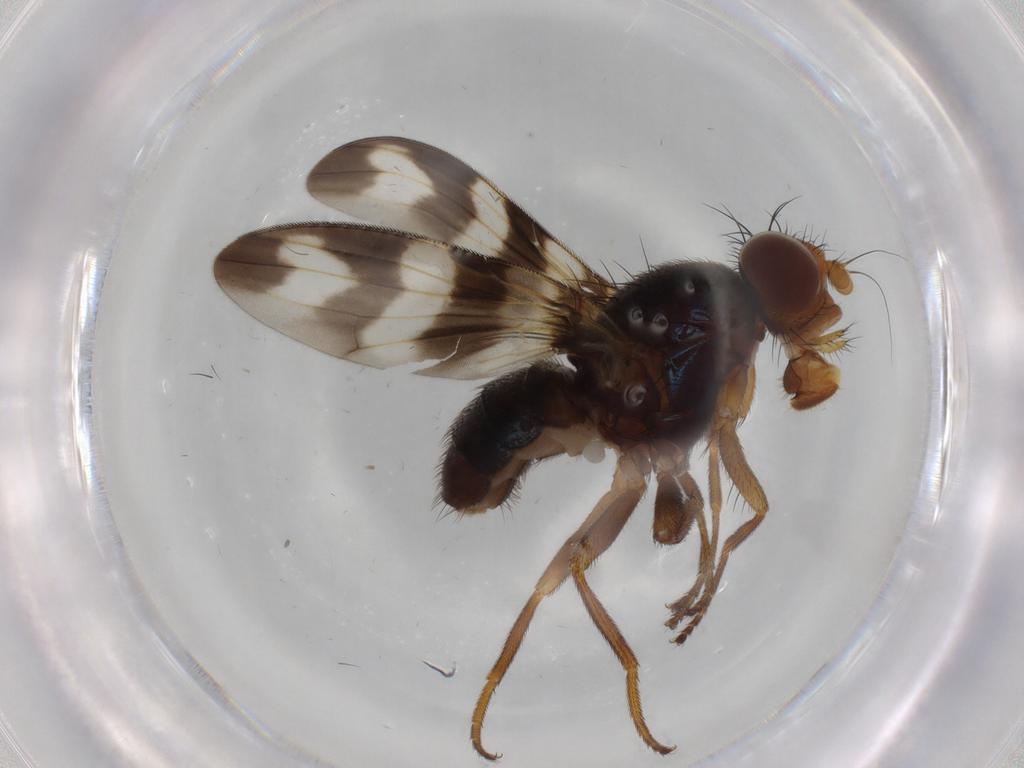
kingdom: Animalia
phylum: Arthropoda
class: Insecta
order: Diptera
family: Ulidiidae
